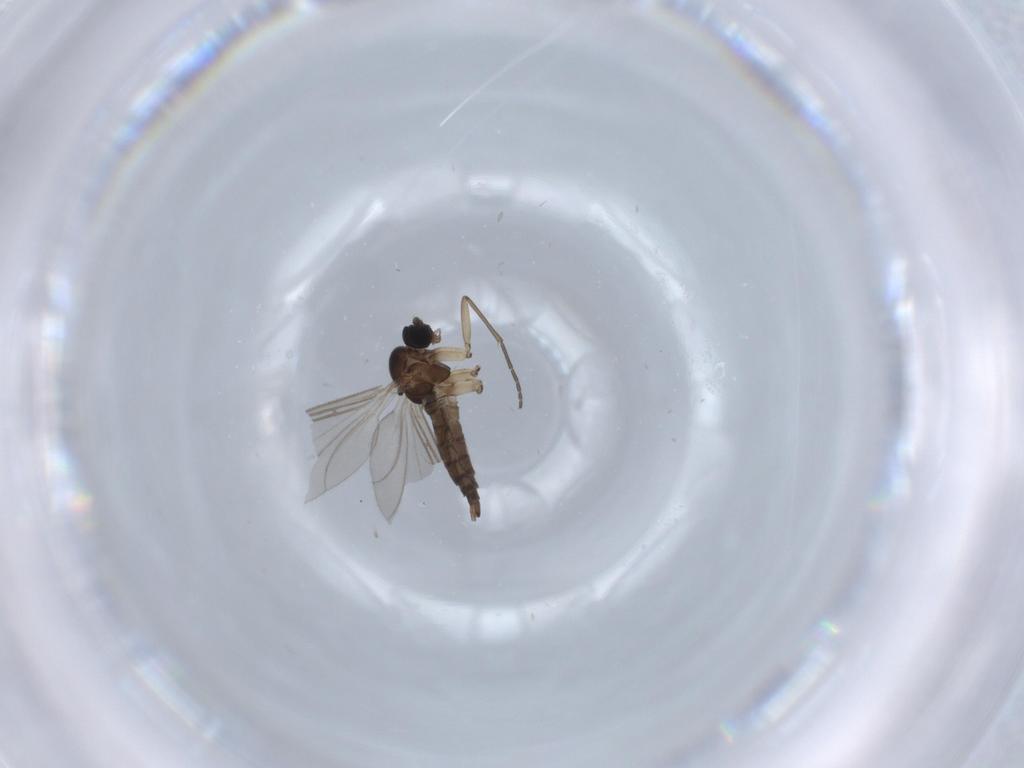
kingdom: Animalia
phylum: Arthropoda
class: Insecta
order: Diptera
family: Sciaridae
